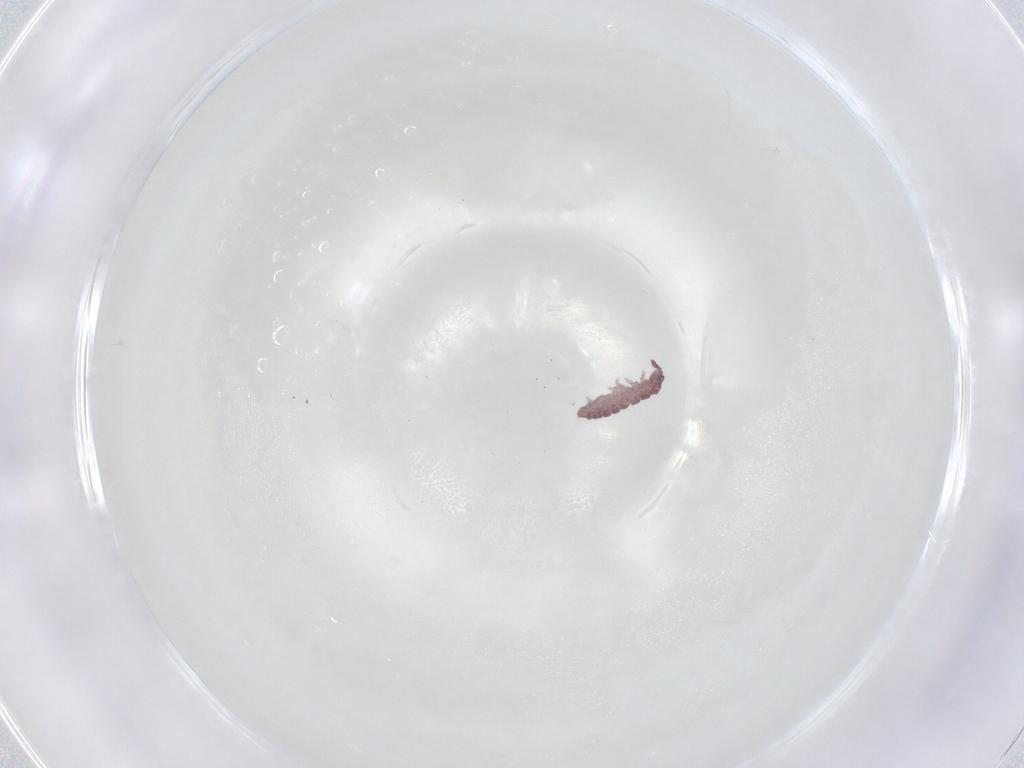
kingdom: Animalia
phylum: Arthropoda
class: Collembola
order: Poduromorpha
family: Hypogastruridae
